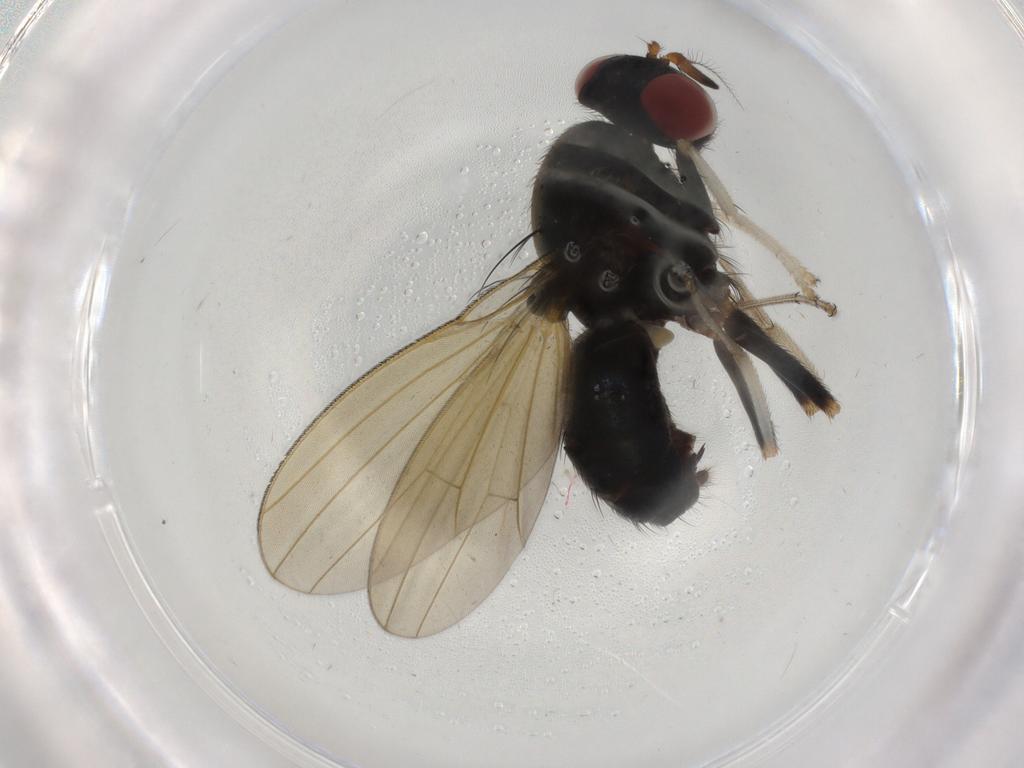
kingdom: Animalia
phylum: Arthropoda
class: Insecta
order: Diptera
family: Lauxaniidae
